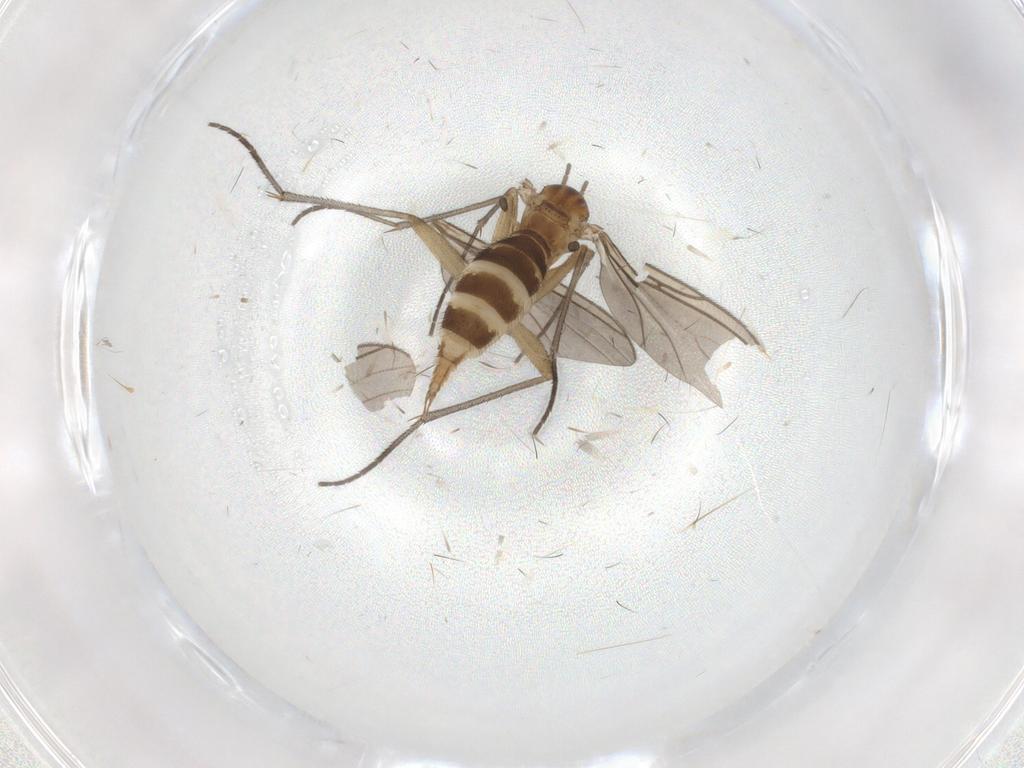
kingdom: Animalia
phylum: Arthropoda
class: Insecta
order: Diptera
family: Sciaridae
